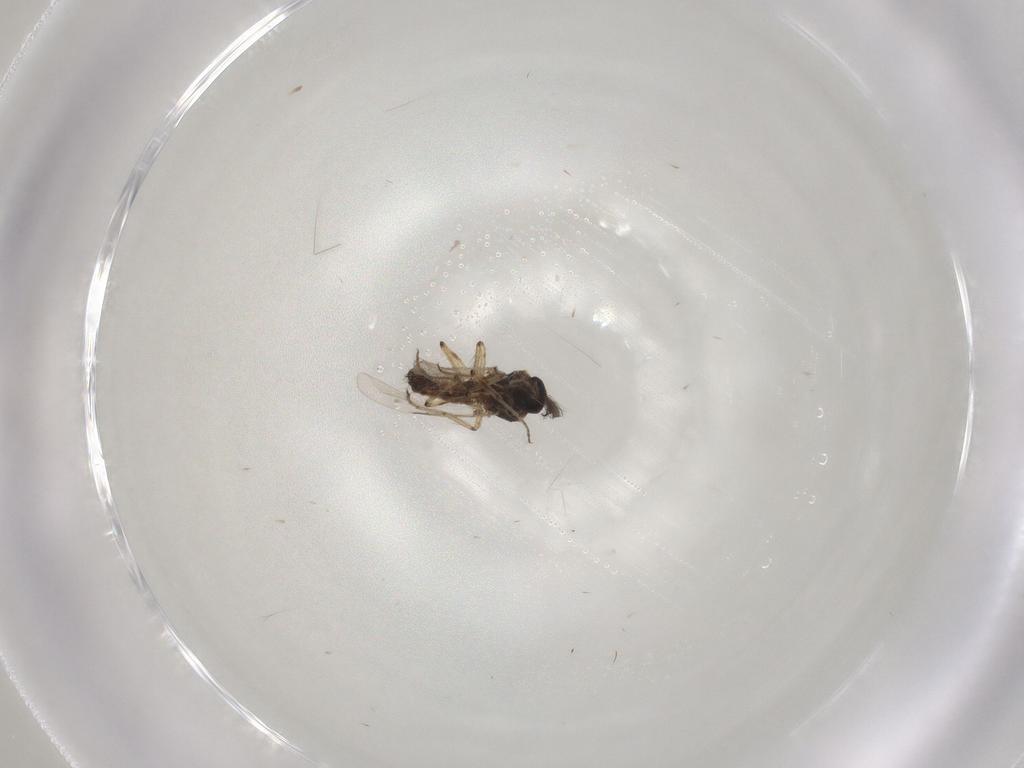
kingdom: Animalia
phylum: Arthropoda
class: Insecta
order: Diptera
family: Ceratopogonidae
